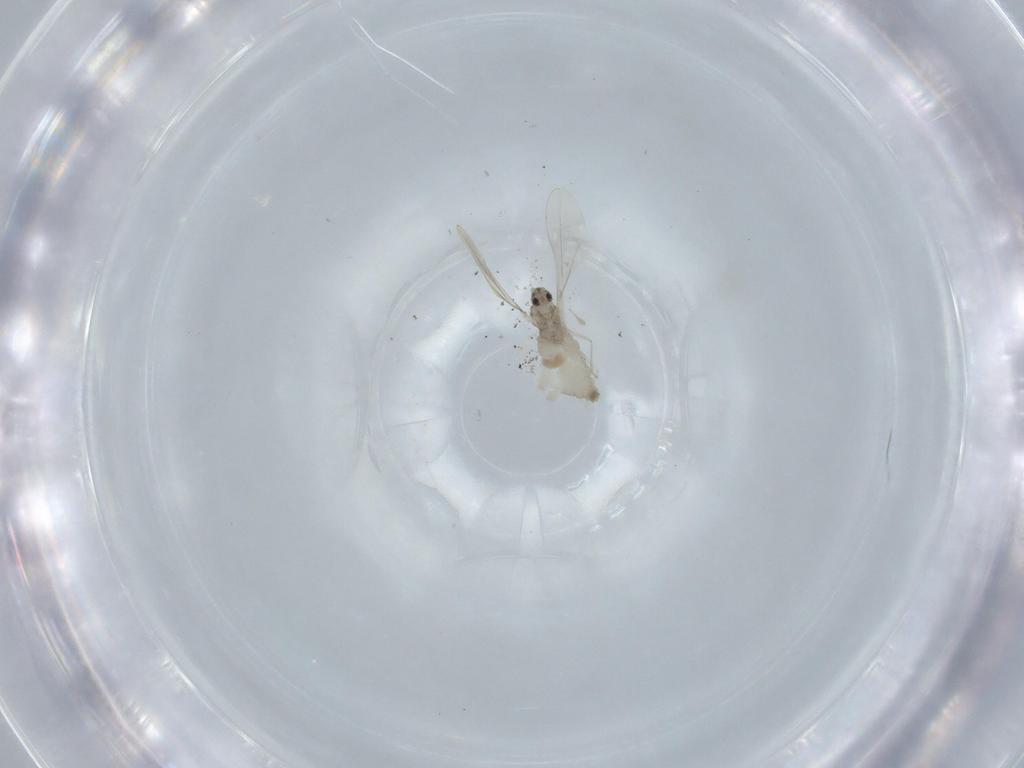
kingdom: Animalia
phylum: Arthropoda
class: Insecta
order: Diptera
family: Cecidomyiidae
